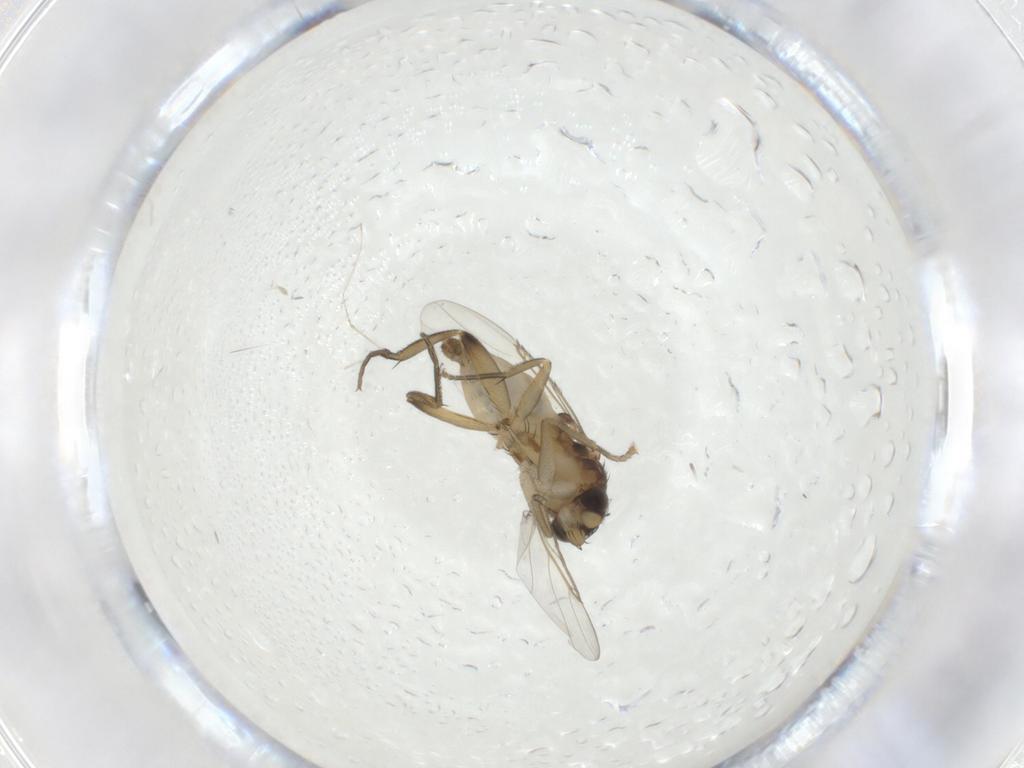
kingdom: Animalia
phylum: Arthropoda
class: Insecta
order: Diptera
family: Phoridae
